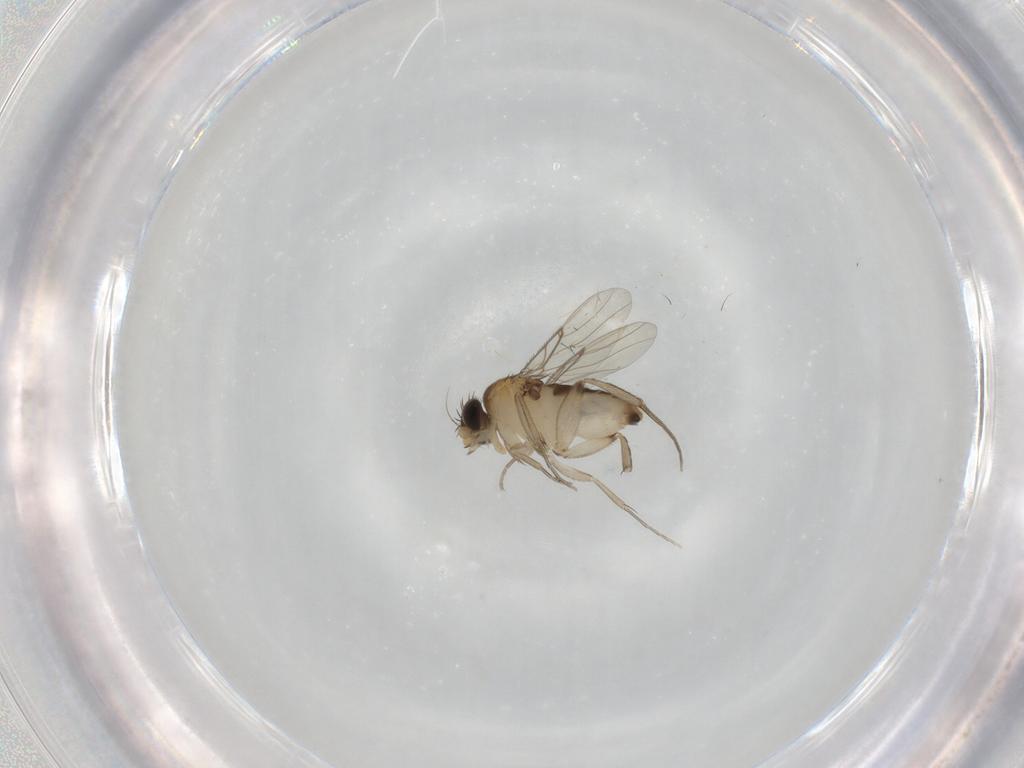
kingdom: Animalia
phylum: Arthropoda
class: Insecta
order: Diptera
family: Phoridae
